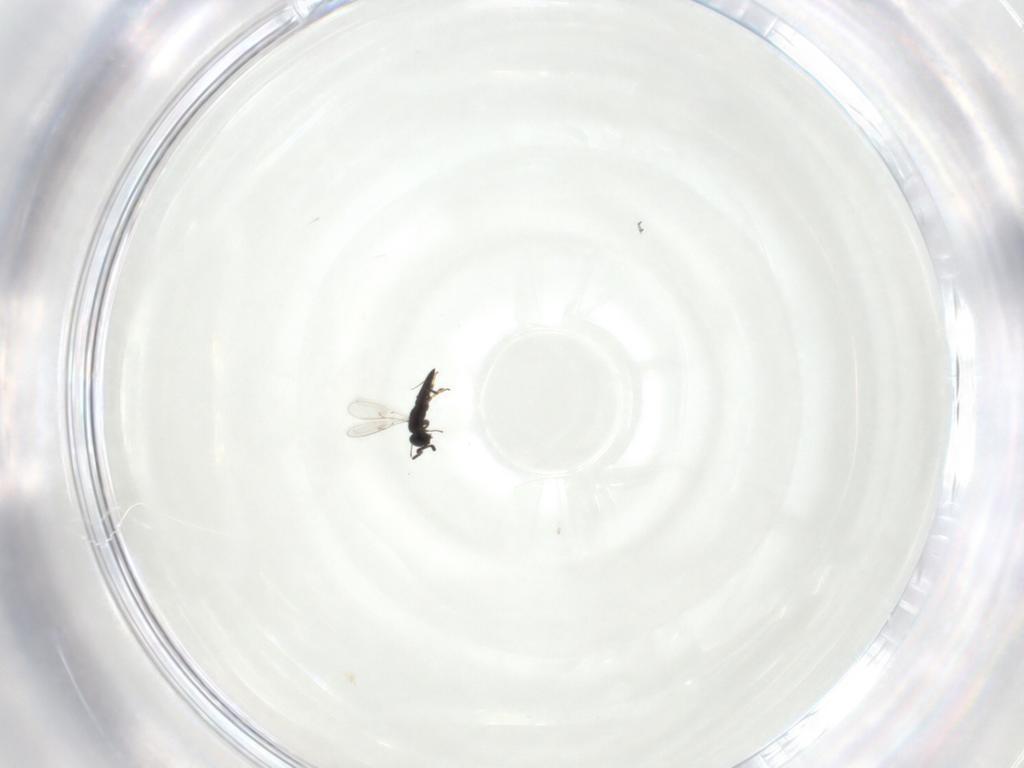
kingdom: Animalia
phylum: Arthropoda
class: Insecta
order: Hymenoptera
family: Scelionidae
